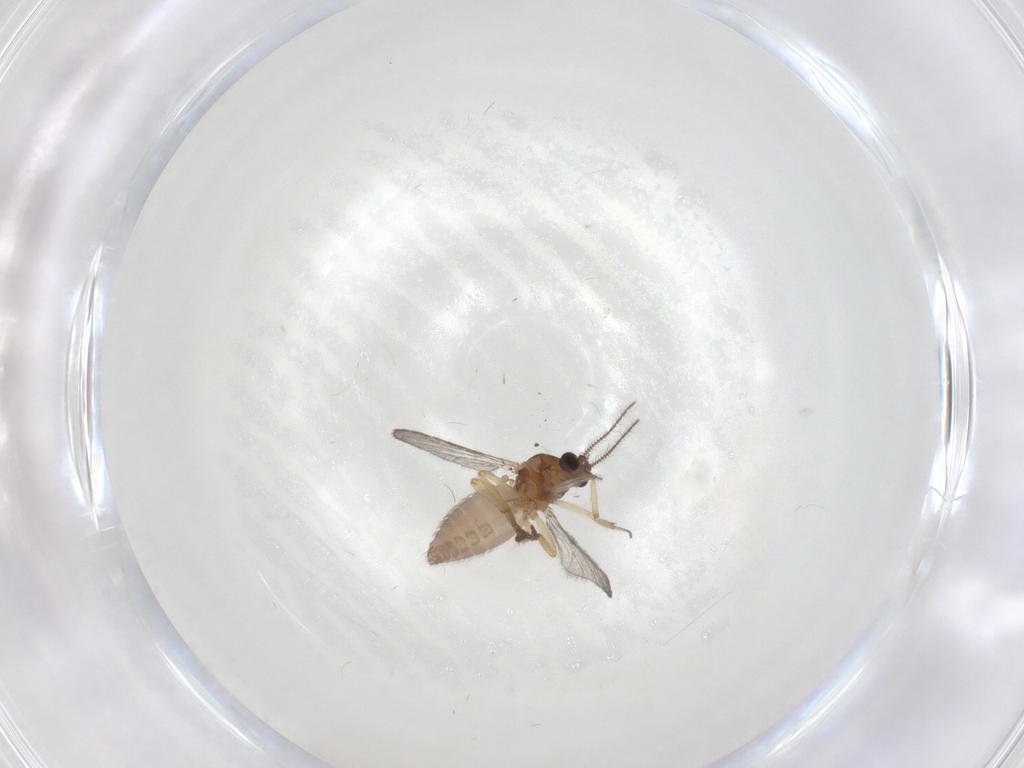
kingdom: Animalia
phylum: Arthropoda
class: Insecta
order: Diptera
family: Ceratopogonidae
